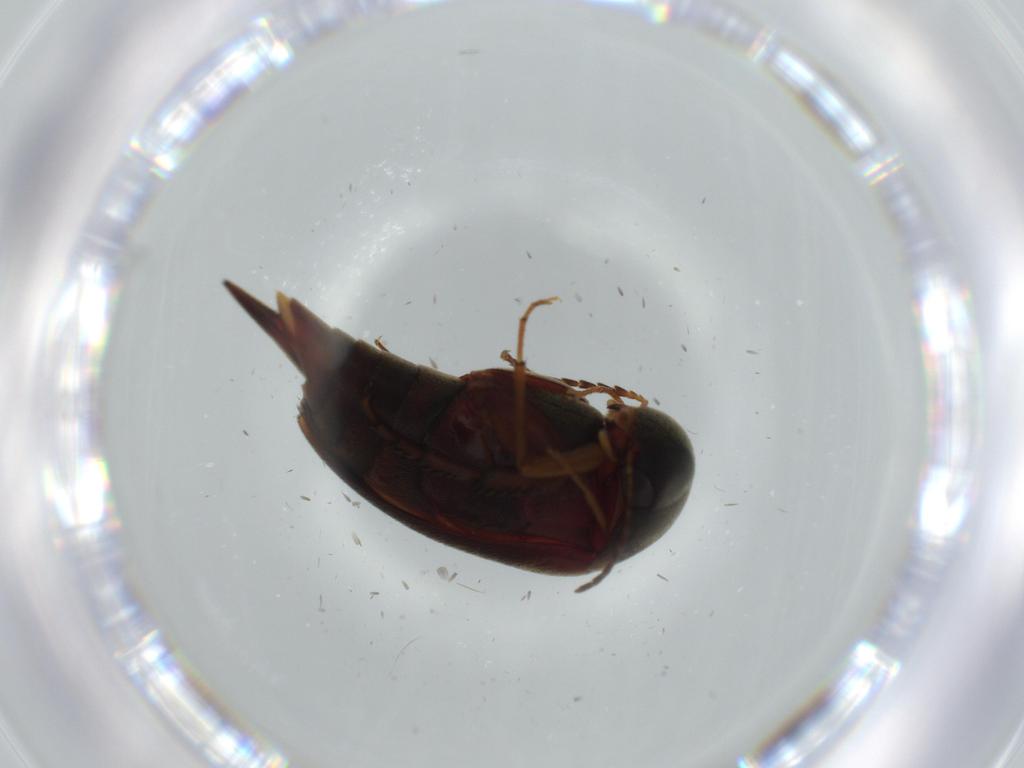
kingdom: Animalia
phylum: Arthropoda
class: Insecta
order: Coleoptera
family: Mordellidae
